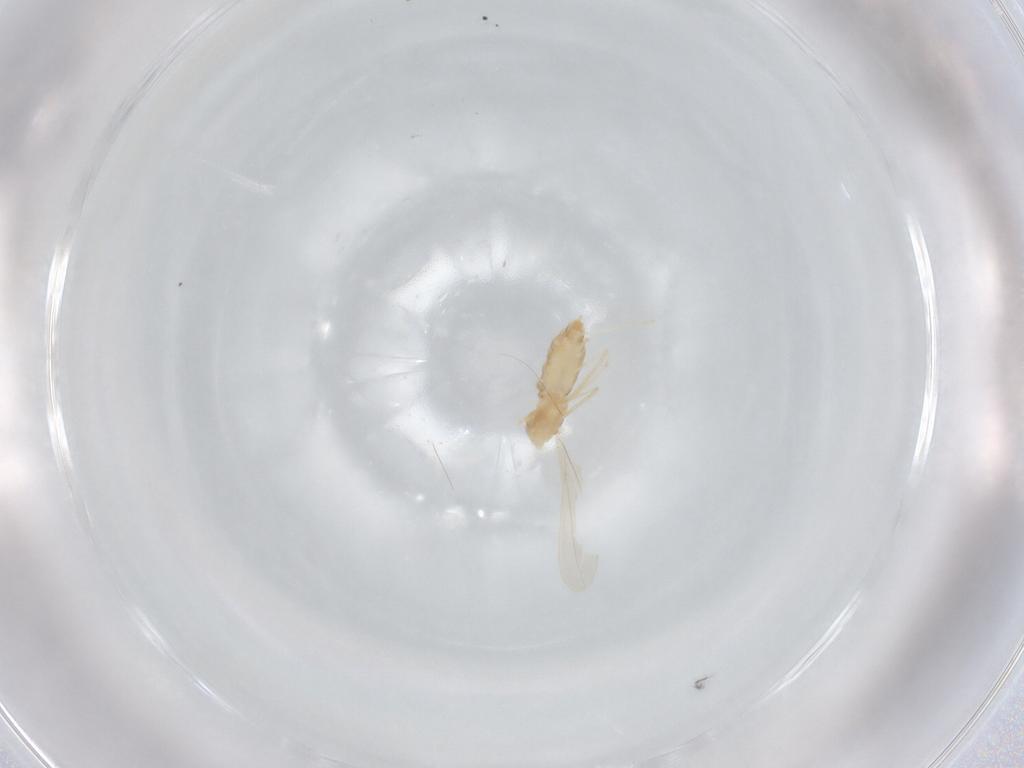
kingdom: Animalia
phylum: Arthropoda
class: Insecta
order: Diptera
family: Cecidomyiidae
